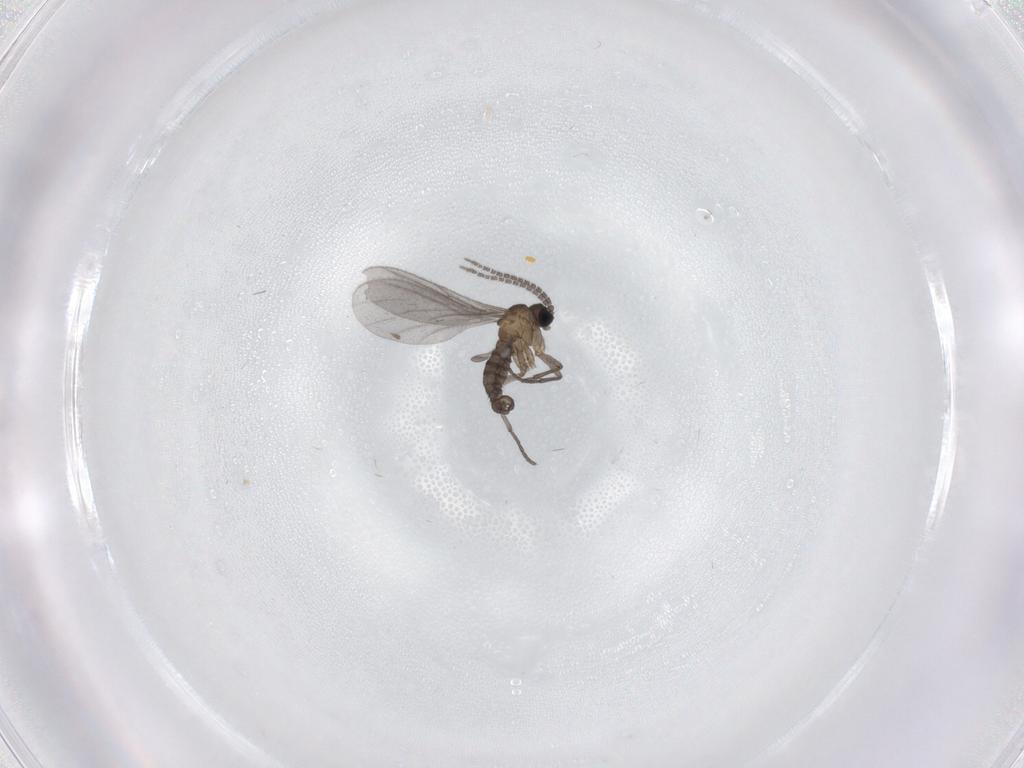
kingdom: Animalia
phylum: Arthropoda
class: Insecta
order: Diptera
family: Sciaridae
